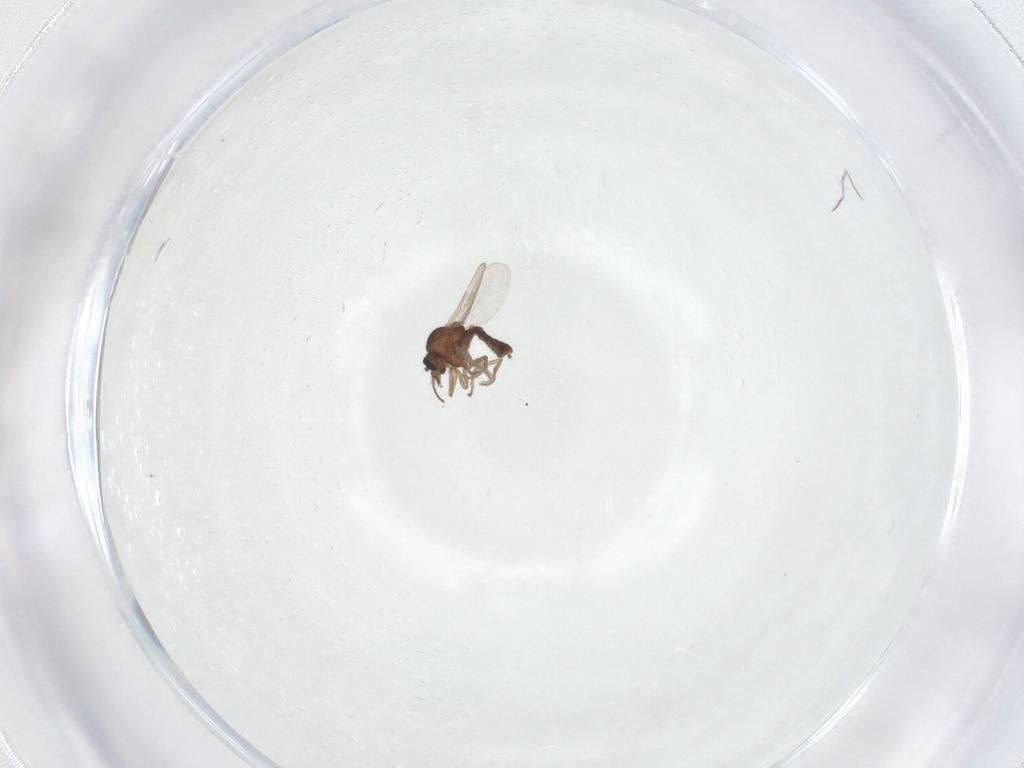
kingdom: Animalia
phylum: Arthropoda
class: Insecta
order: Diptera
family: Ceratopogonidae
